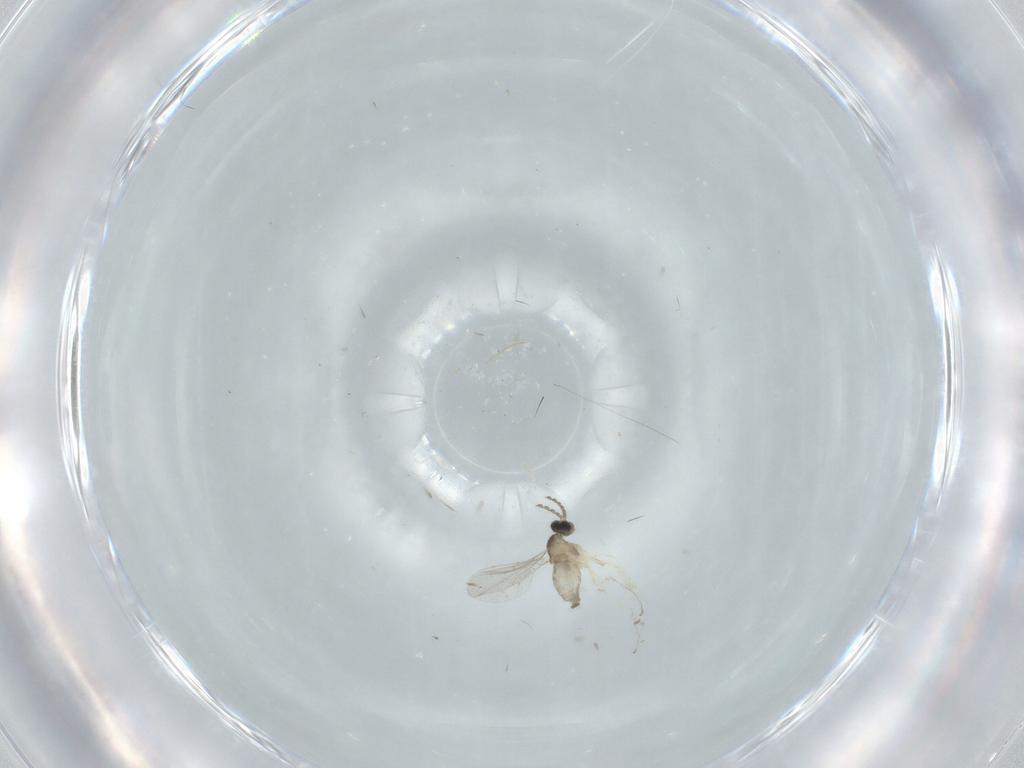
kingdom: Animalia
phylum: Arthropoda
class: Insecta
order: Diptera
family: Cecidomyiidae
